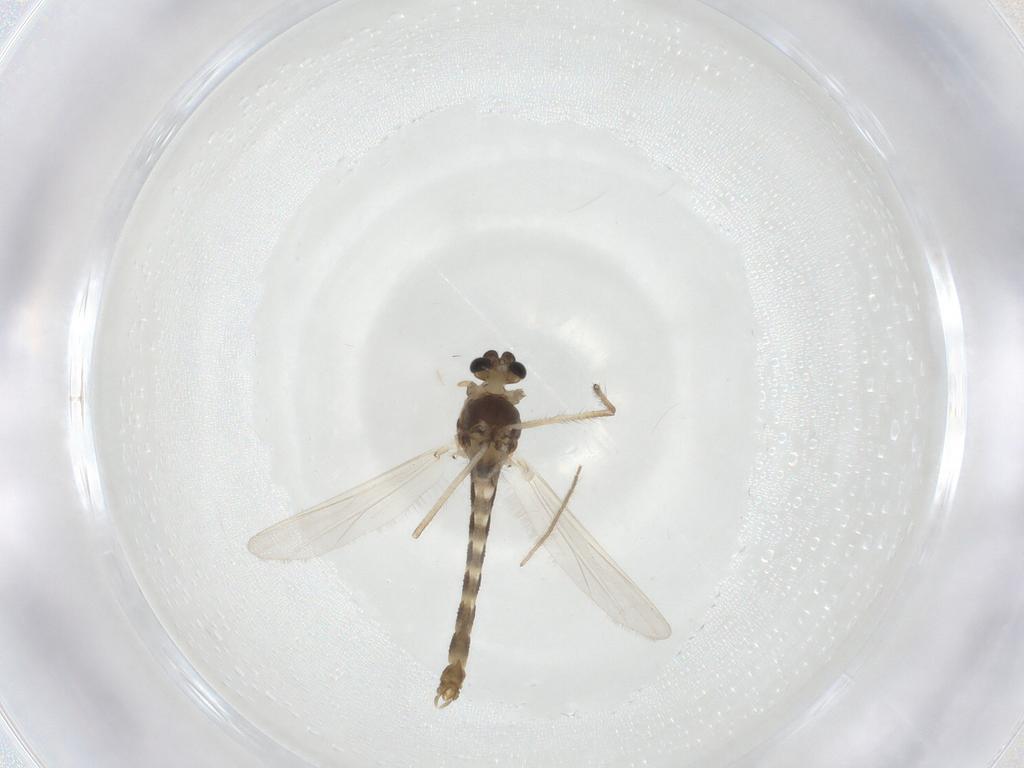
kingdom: Animalia
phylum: Arthropoda
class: Insecta
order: Diptera
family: Chironomidae
